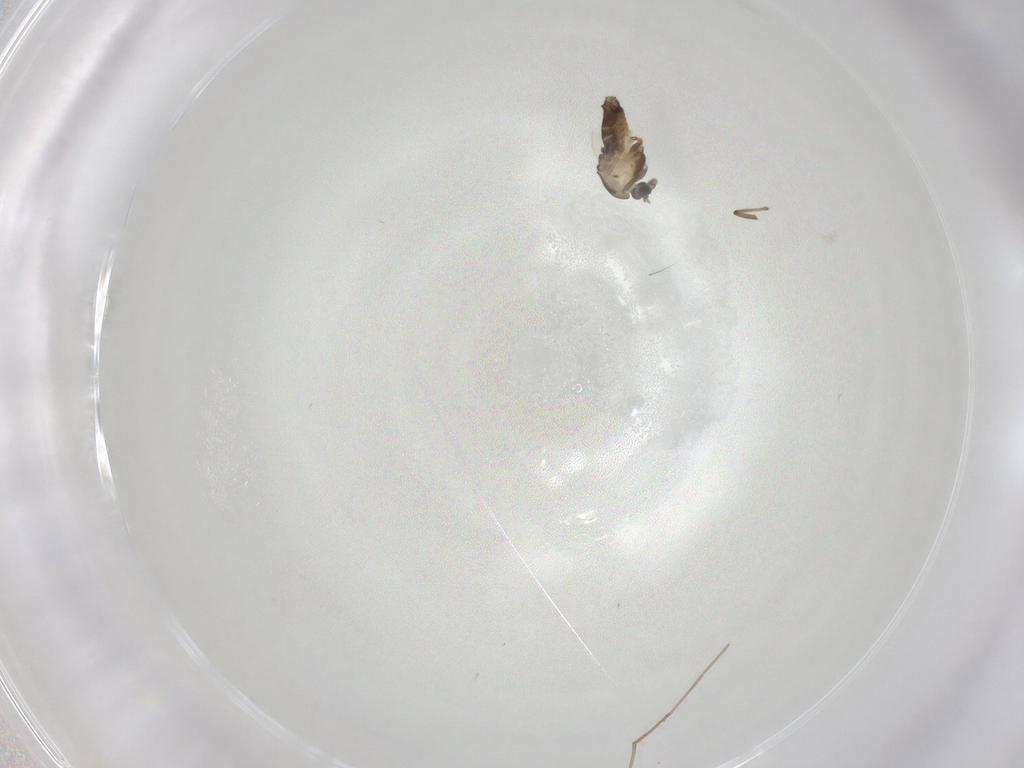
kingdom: Animalia
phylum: Arthropoda
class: Insecta
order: Diptera
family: Chironomidae
